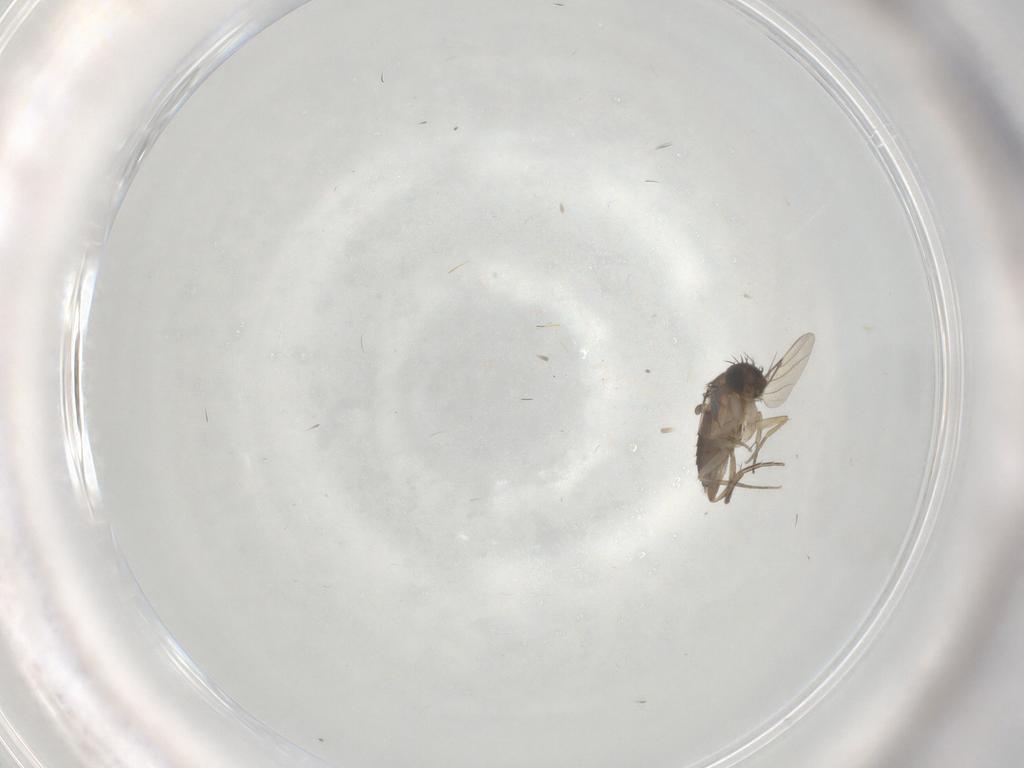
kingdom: Animalia
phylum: Arthropoda
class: Insecta
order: Diptera
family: Phoridae
